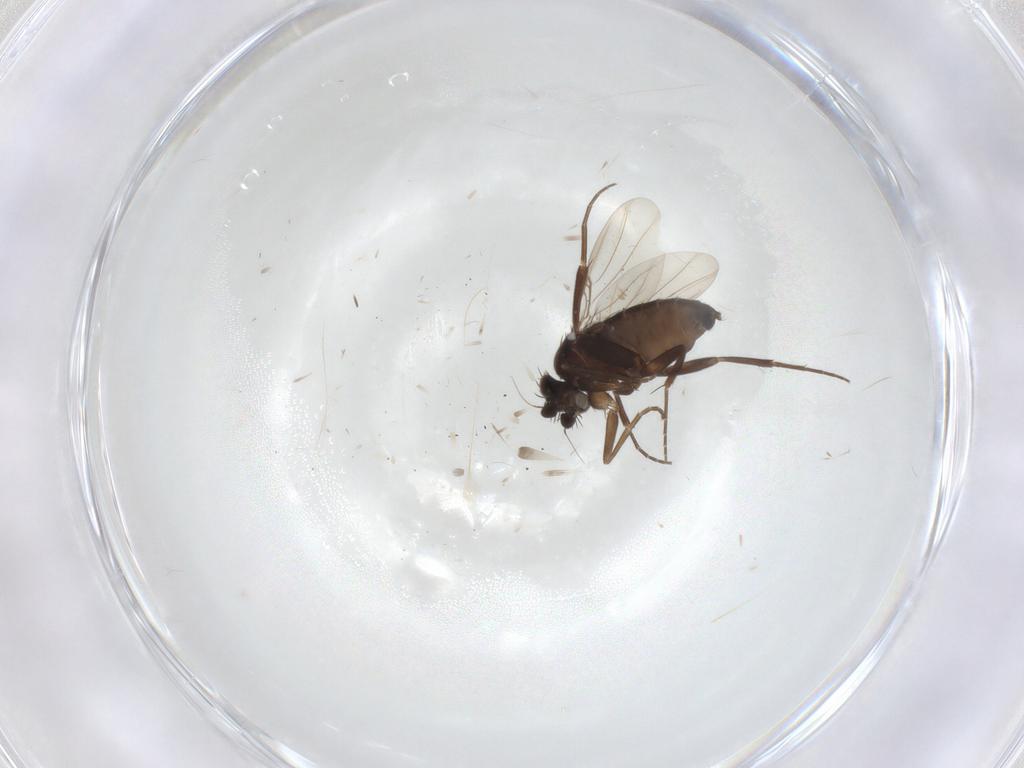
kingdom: Animalia
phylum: Arthropoda
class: Insecta
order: Diptera
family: Phoridae
